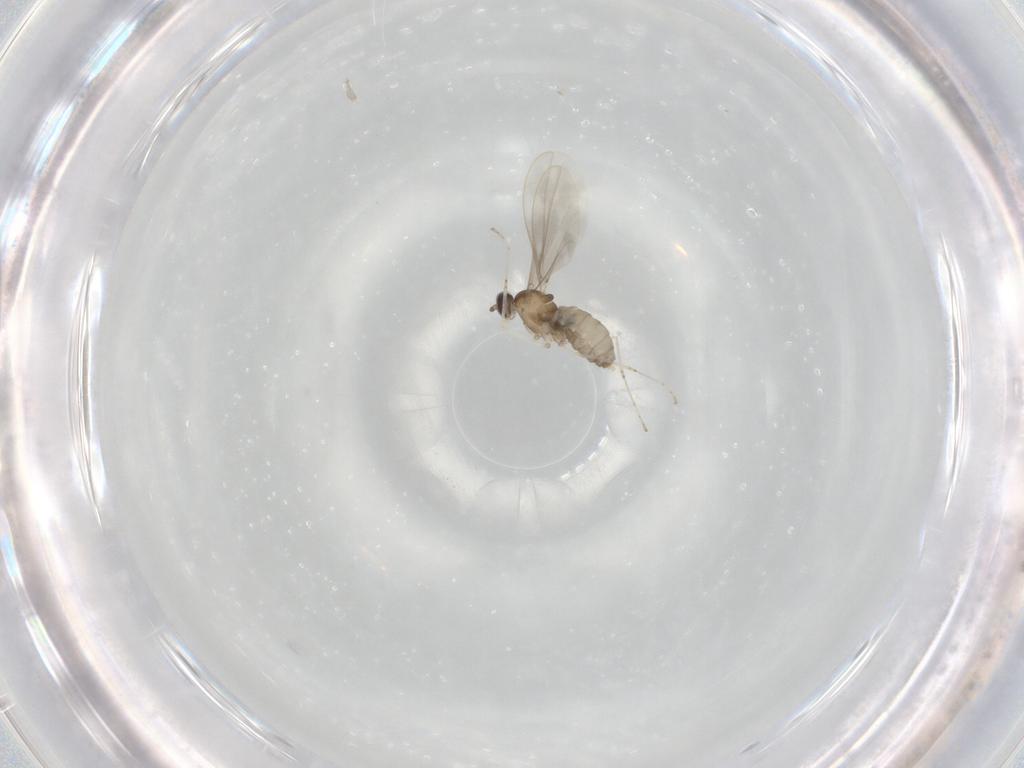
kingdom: Animalia
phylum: Arthropoda
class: Insecta
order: Diptera
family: Cecidomyiidae
